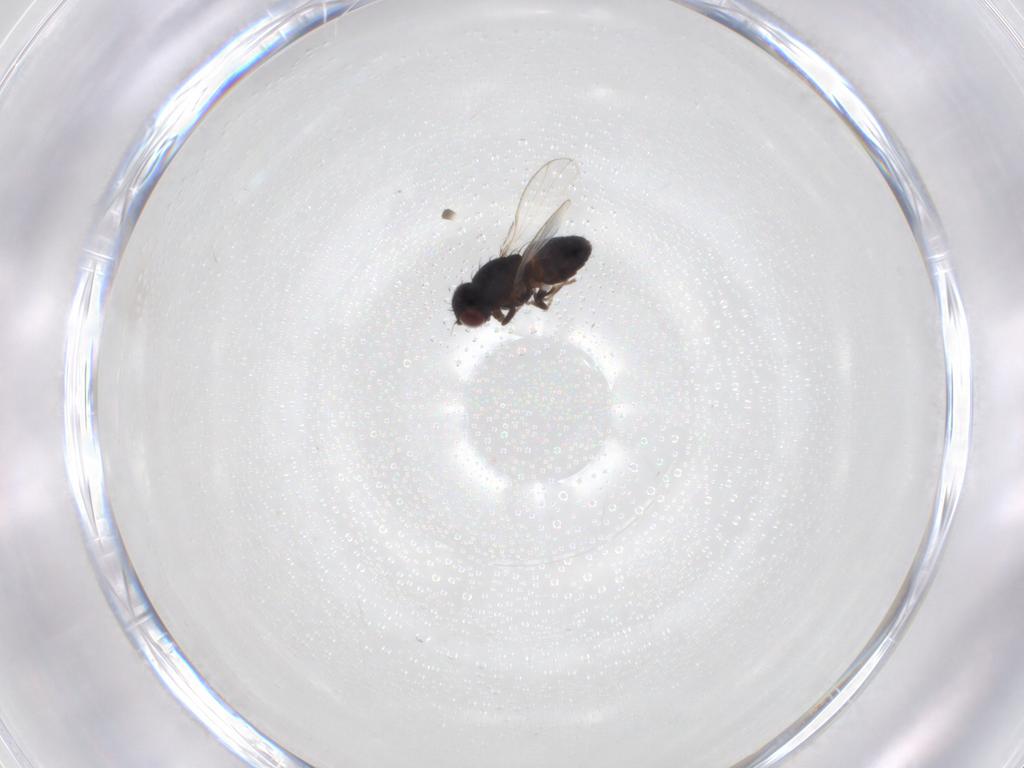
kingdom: Animalia
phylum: Arthropoda
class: Insecta
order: Diptera
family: Carnidae
